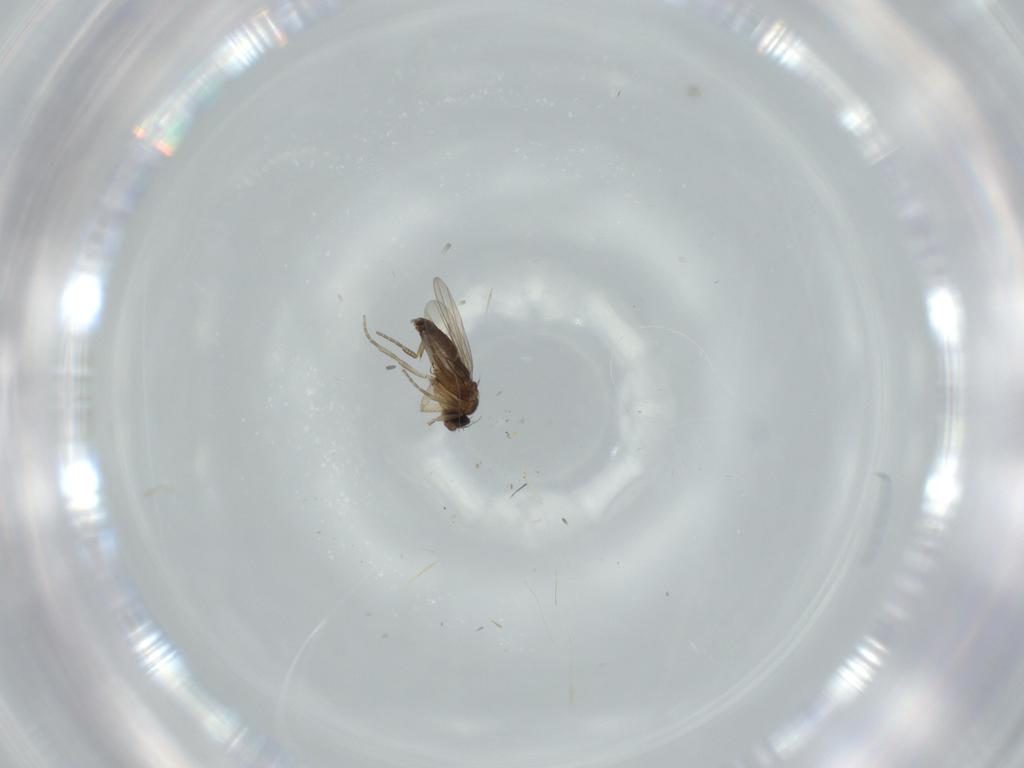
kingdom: Animalia
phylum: Arthropoda
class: Insecta
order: Diptera
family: Cecidomyiidae
